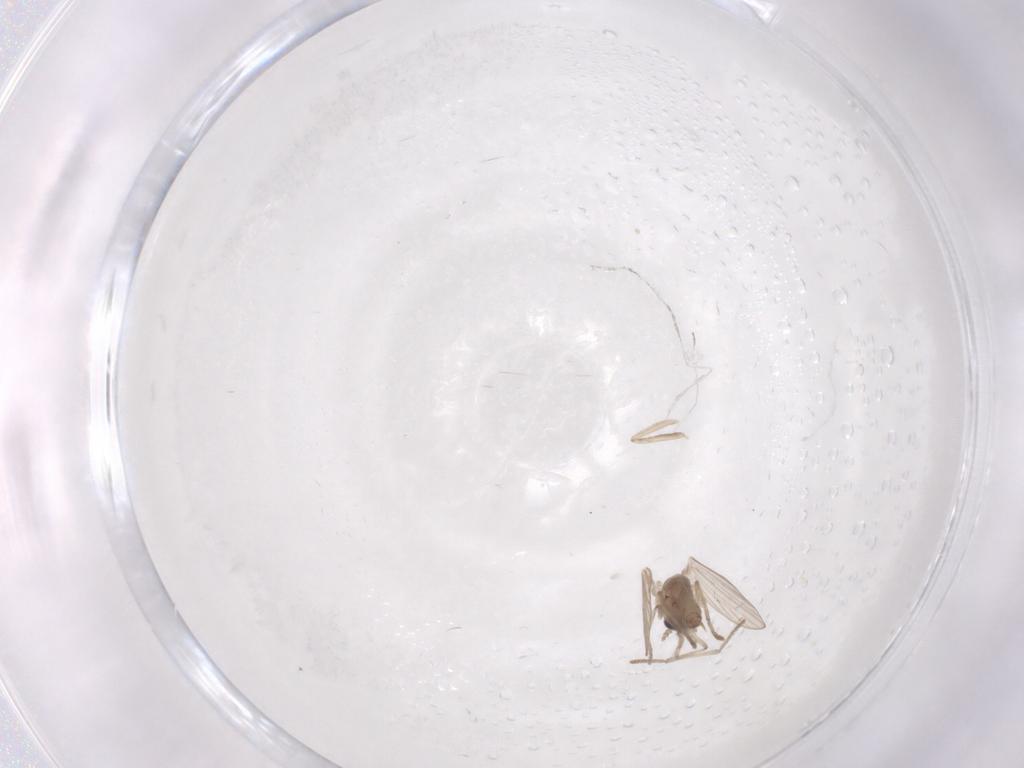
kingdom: Animalia
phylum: Arthropoda
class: Insecta
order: Diptera
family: Cecidomyiidae
